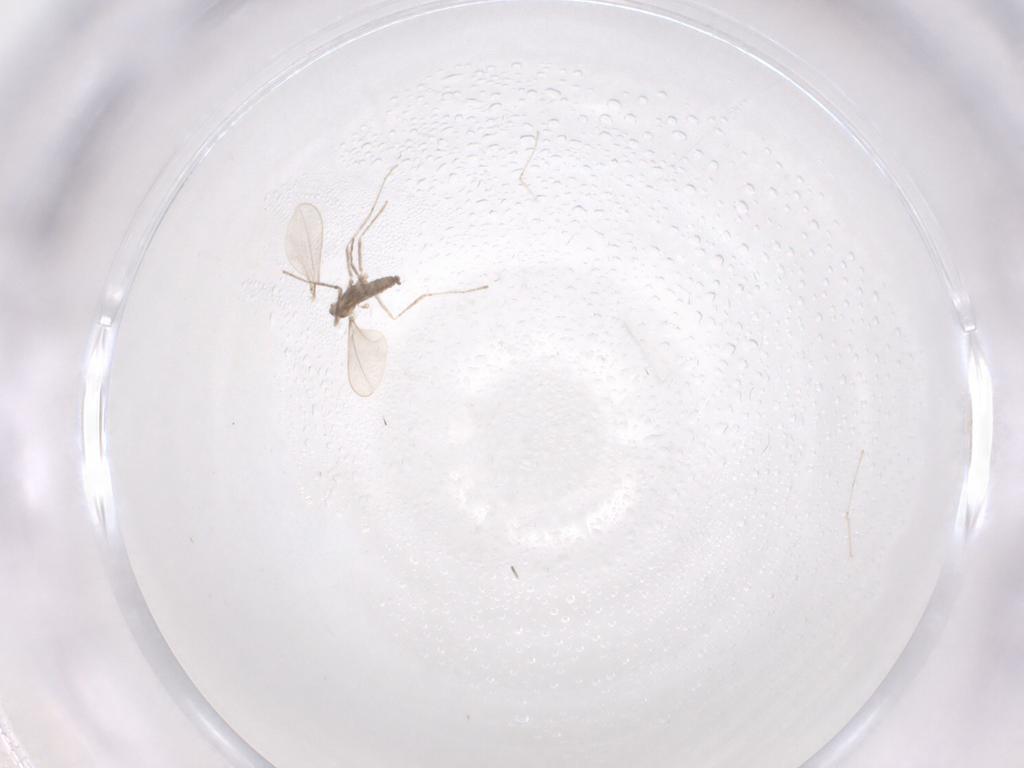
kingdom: Animalia
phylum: Arthropoda
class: Insecta
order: Diptera
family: Cecidomyiidae
